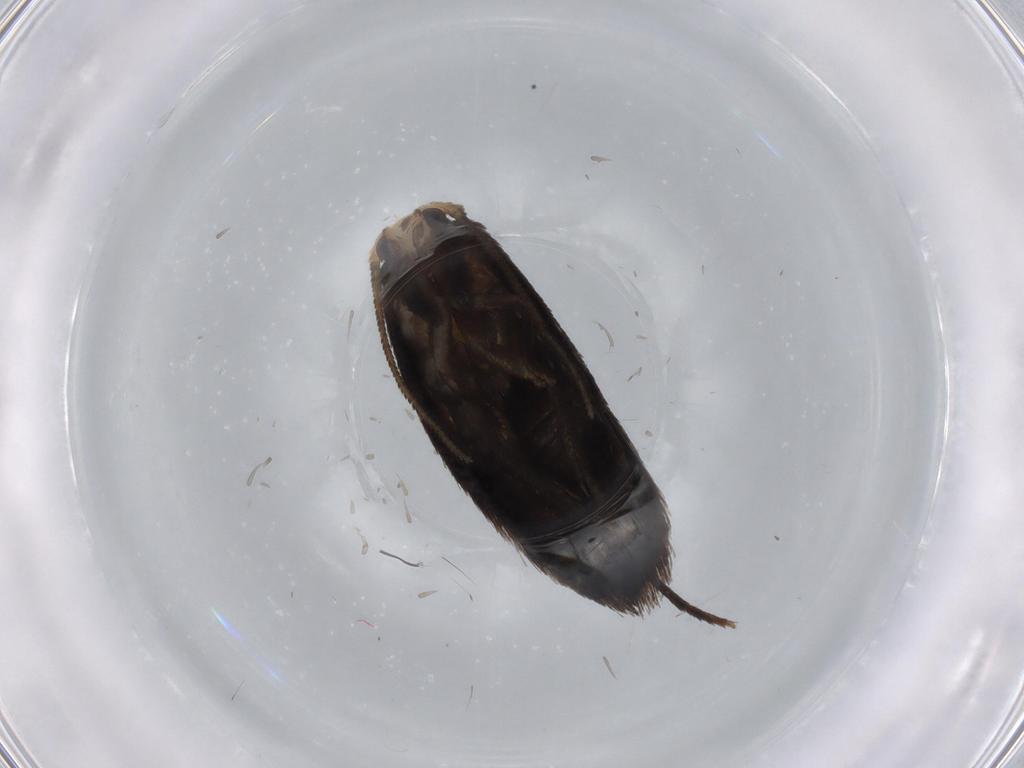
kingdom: Animalia
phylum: Arthropoda
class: Insecta
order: Lepidoptera
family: Nepticulidae
